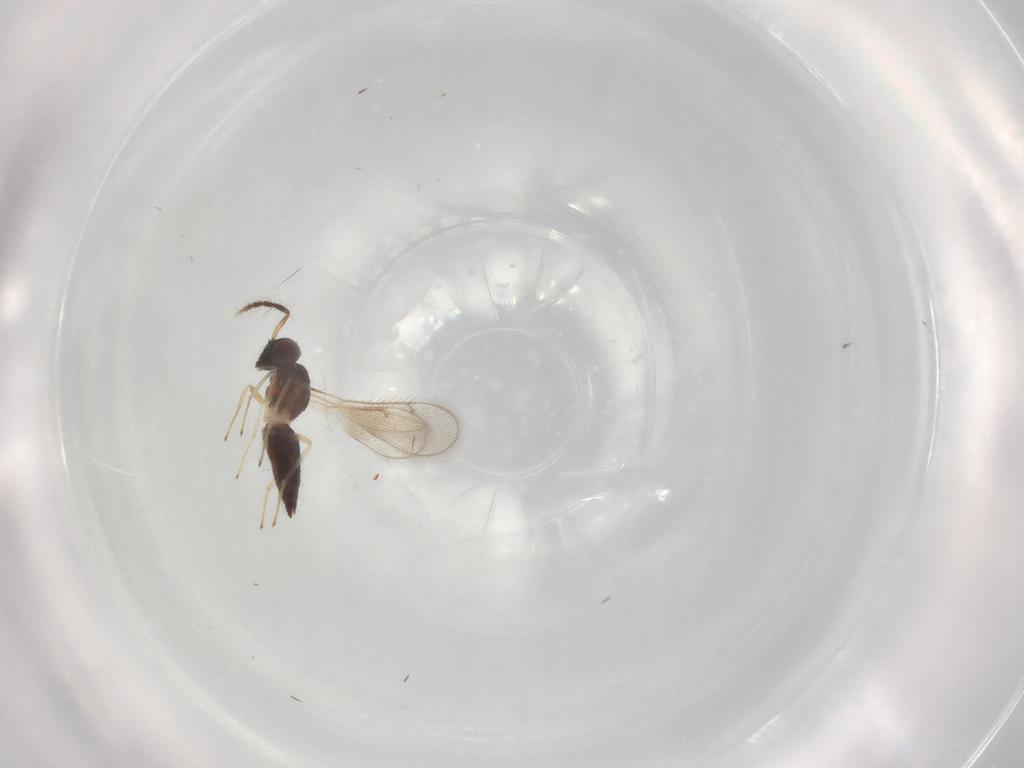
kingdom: Animalia
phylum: Arthropoda
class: Insecta
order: Hymenoptera
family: Eulophidae
